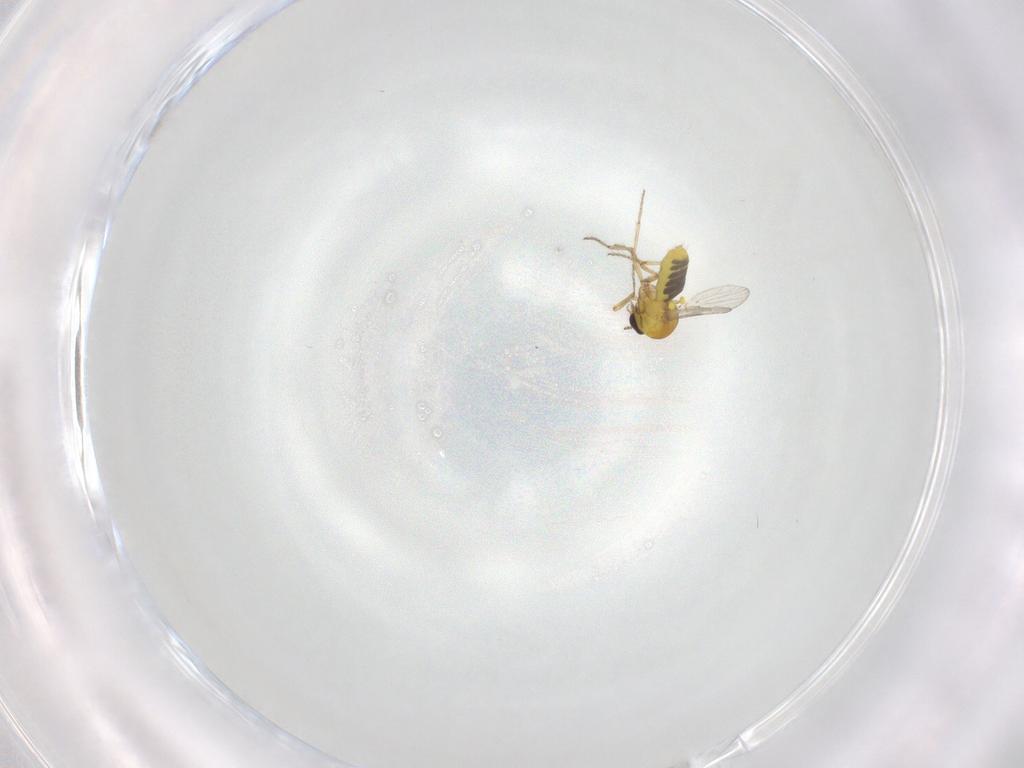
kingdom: Animalia
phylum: Arthropoda
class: Insecta
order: Diptera
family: Ceratopogonidae
